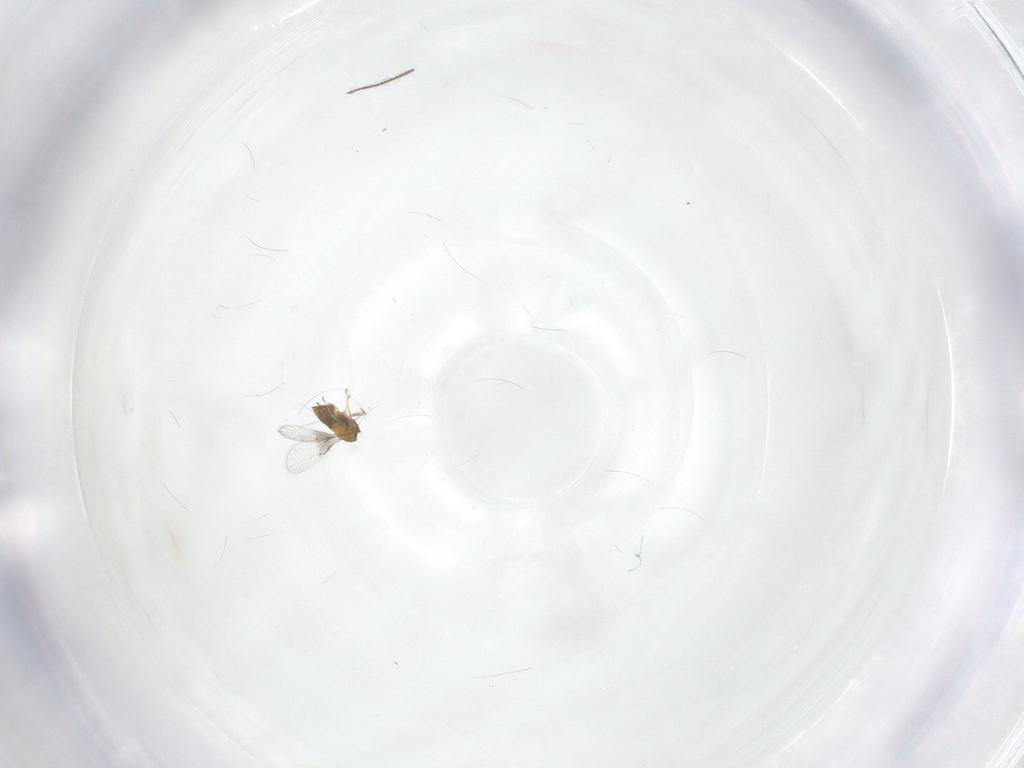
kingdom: Animalia
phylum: Arthropoda
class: Insecta
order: Hymenoptera
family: Trichogrammatidae
